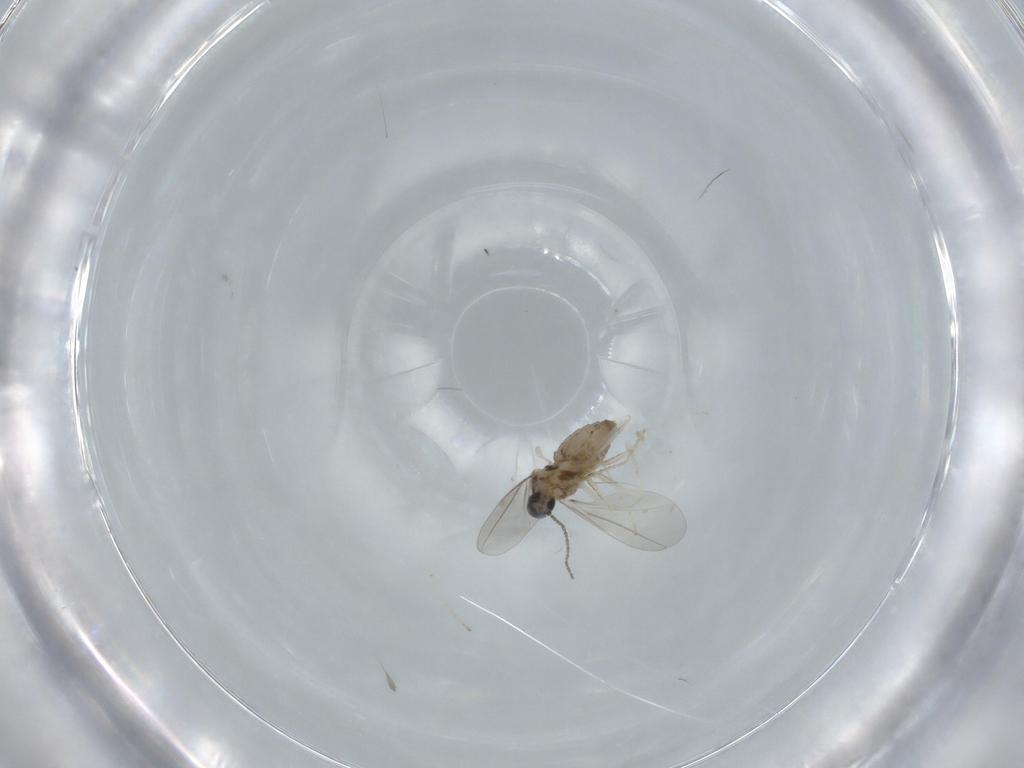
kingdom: Animalia
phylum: Arthropoda
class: Insecta
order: Diptera
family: Cecidomyiidae
